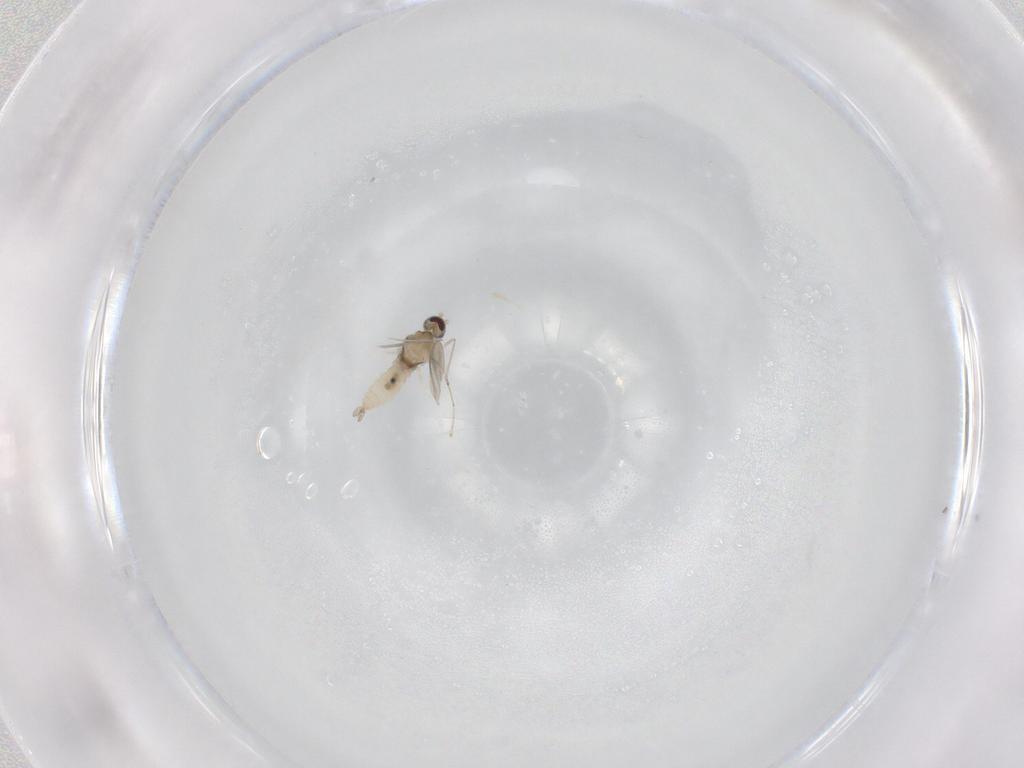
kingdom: Animalia
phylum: Arthropoda
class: Insecta
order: Diptera
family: Cecidomyiidae
